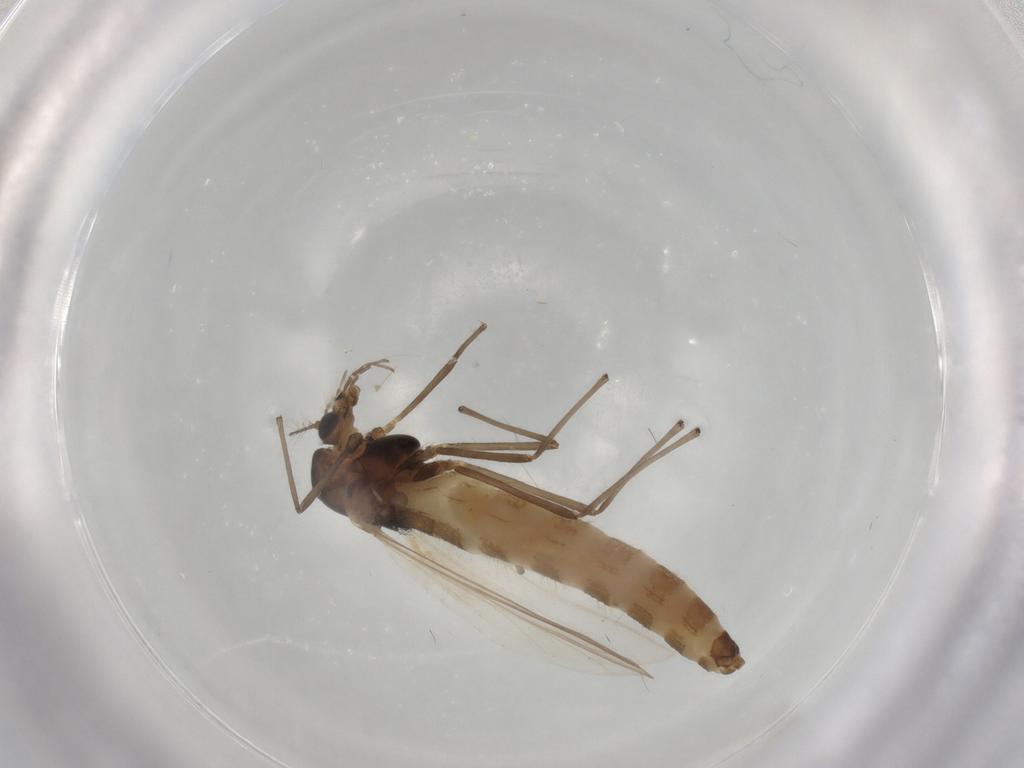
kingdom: Animalia
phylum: Arthropoda
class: Insecta
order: Diptera
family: Chironomidae
